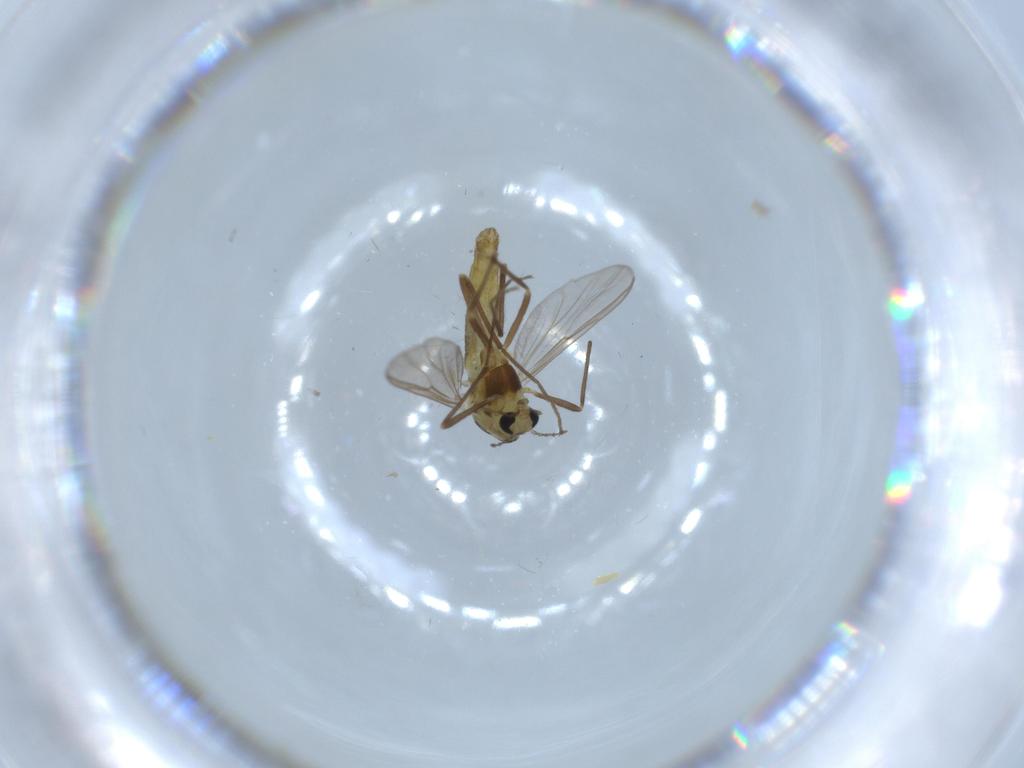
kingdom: Animalia
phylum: Arthropoda
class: Insecta
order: Diptera
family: Chironomidae
